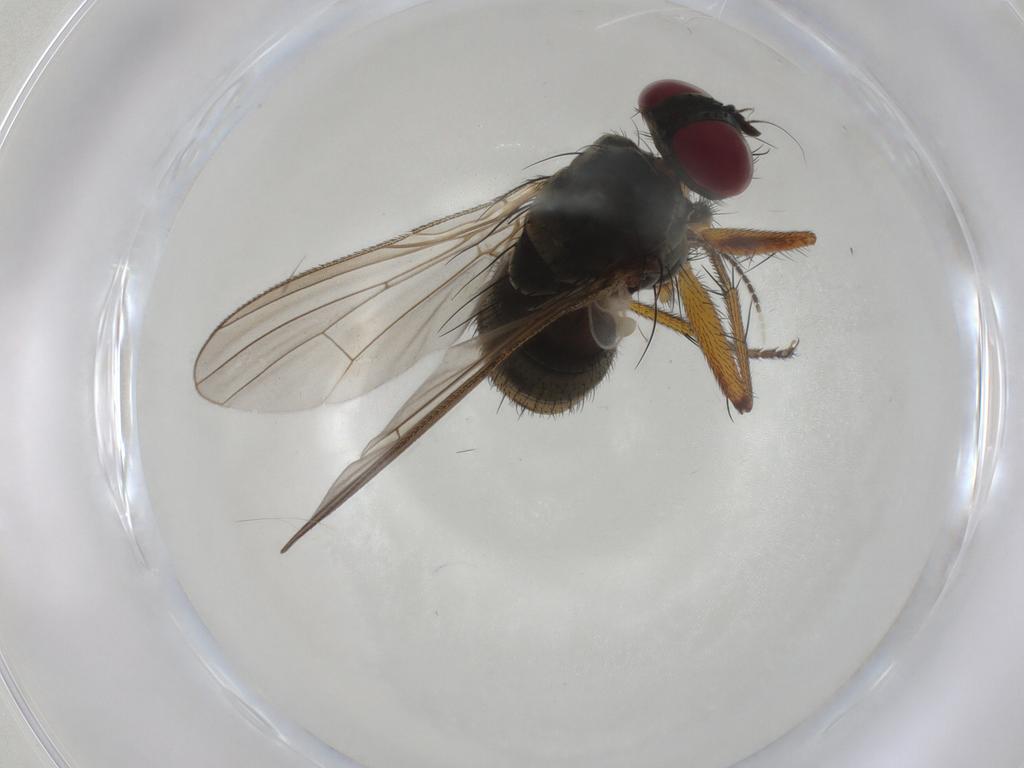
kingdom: Animalia
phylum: Arthropoda
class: Insecta
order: Diptera
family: Muscidae
